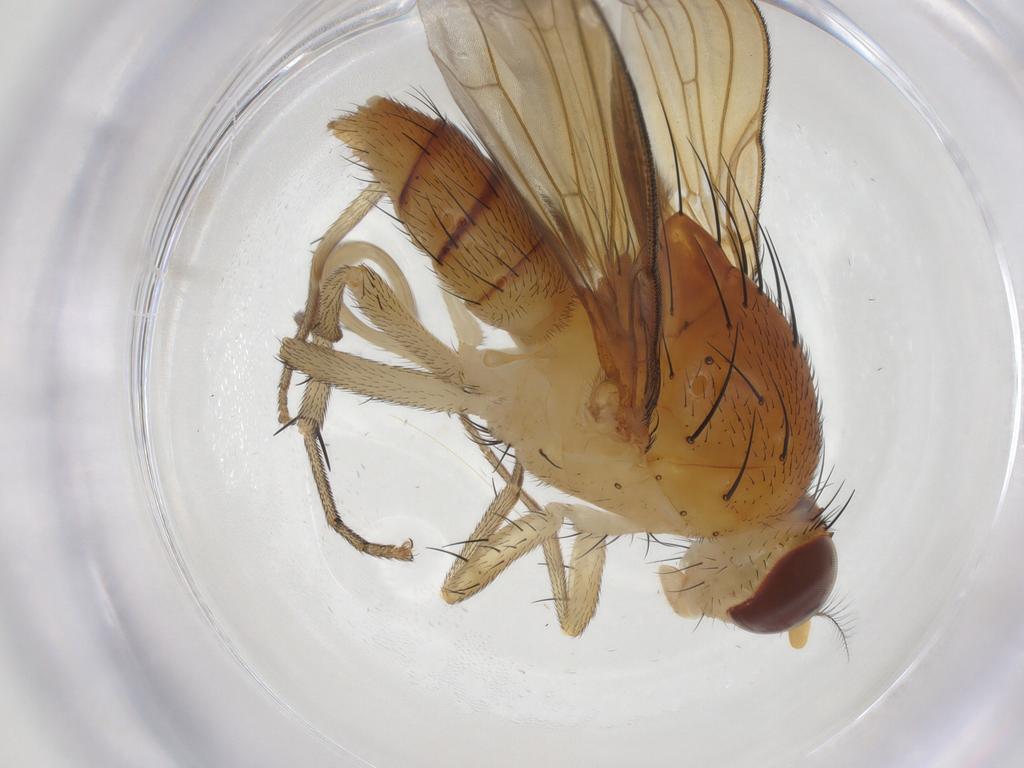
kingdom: Animalia
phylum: Arthropoda
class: Insecta
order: Diptera
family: Lauxaniidae
